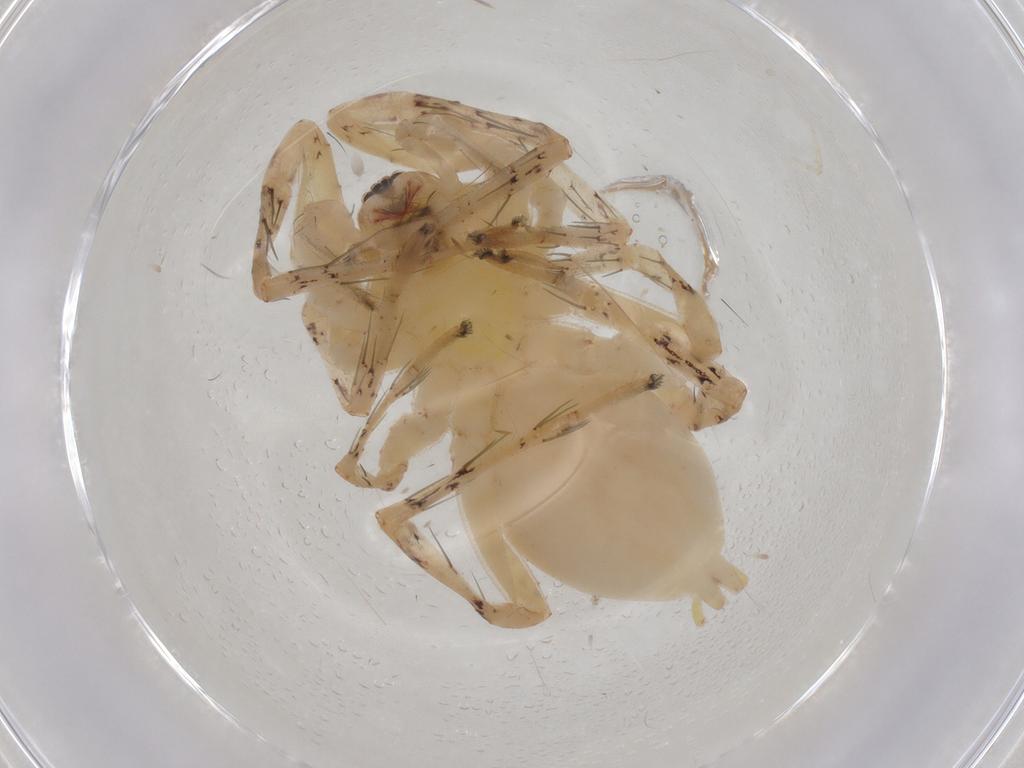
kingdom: Animalia
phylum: Arthropoda
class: Arachnida
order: Araneae
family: Anyphaenidae
